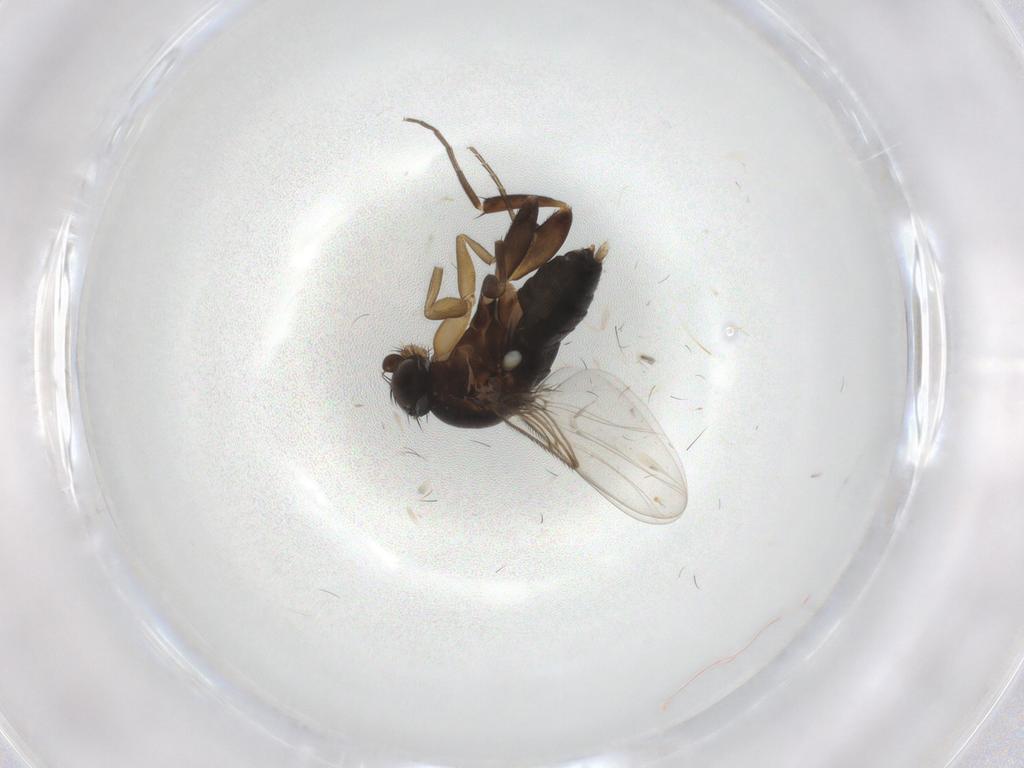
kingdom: Animalia
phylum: Arthropoda
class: Insecta
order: Diptera
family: Phoridae
